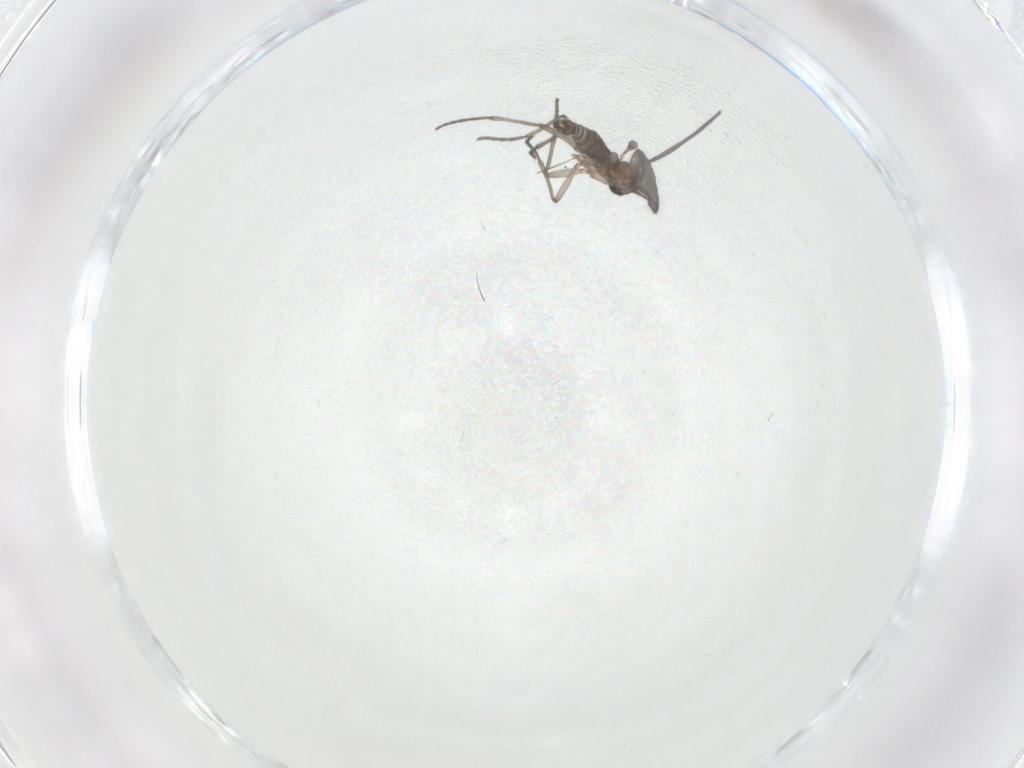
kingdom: Animalia
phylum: Arthropoda
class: Insecta
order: Diptera
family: Sciaridae
